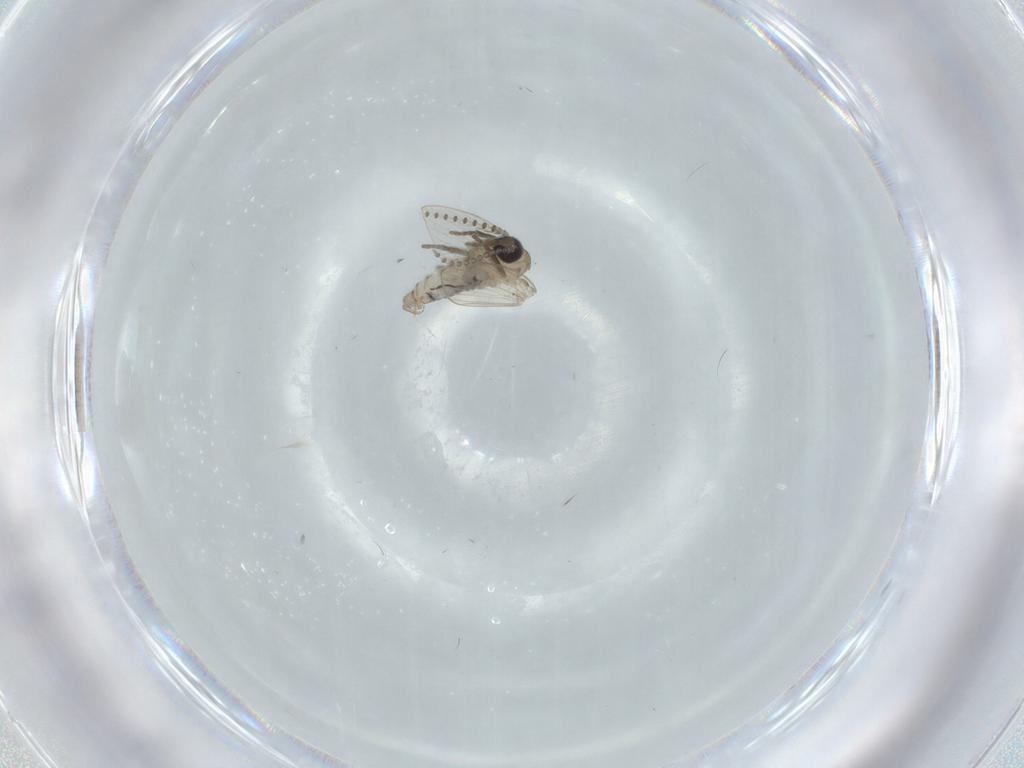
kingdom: Animalia
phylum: Arthropoda
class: Insecta
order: Diptera
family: Psychodidae
